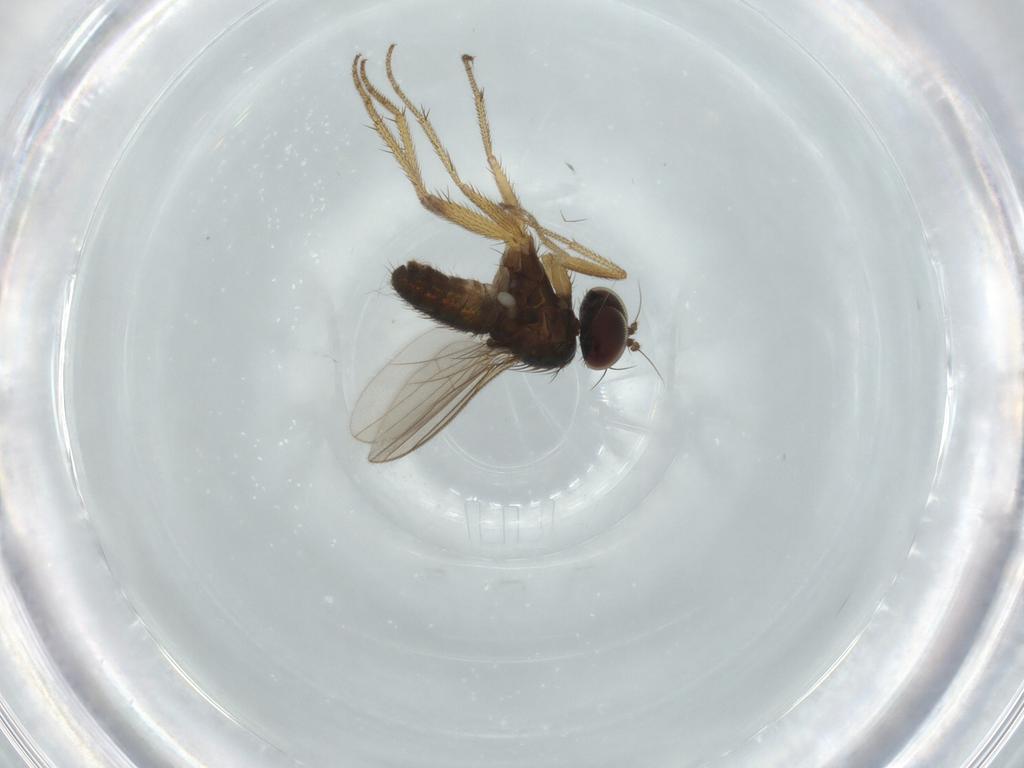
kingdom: Animalia
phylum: Arthropoda
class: Insecta
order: Diptera
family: Sciaridae
